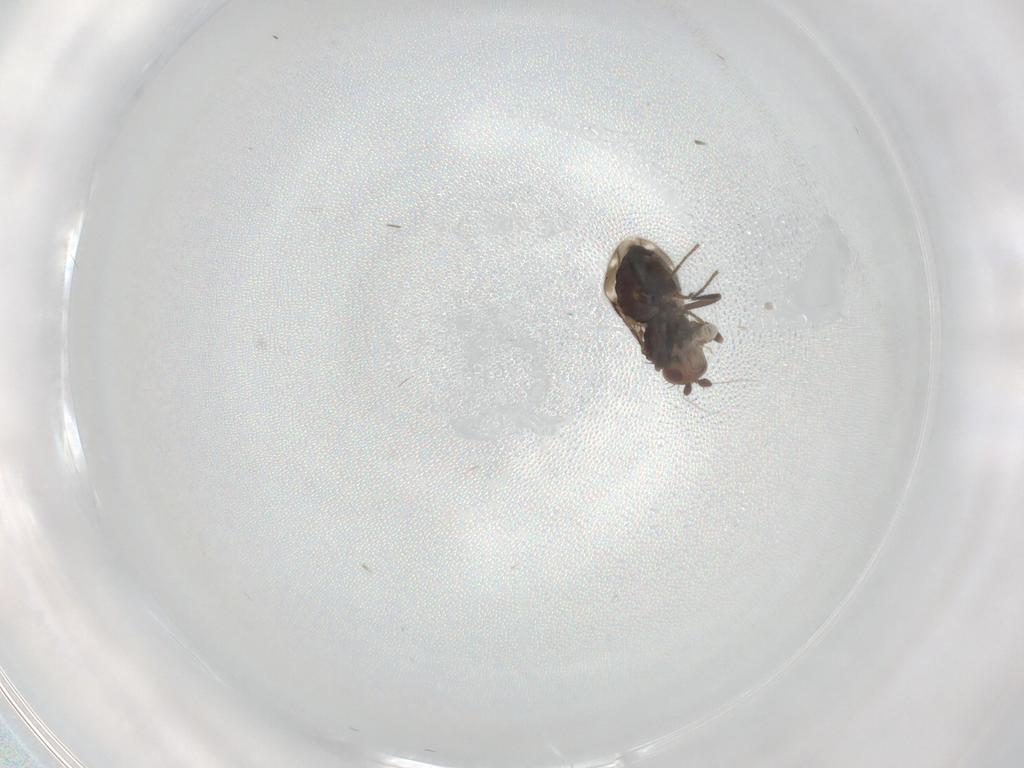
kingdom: Animalia
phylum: Arthropoda
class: Insecta
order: Diptera
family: Sphaeroceridae
